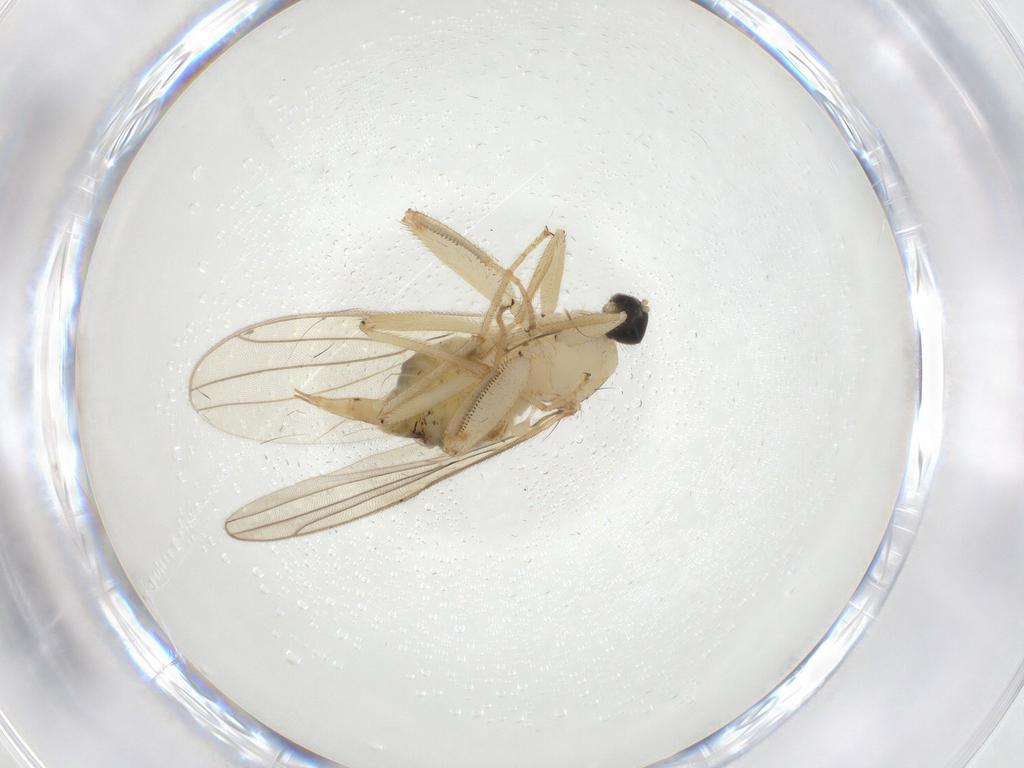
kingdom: Animalia
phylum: Arthropoda
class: Insecta
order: Diptera
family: Hybotidae
